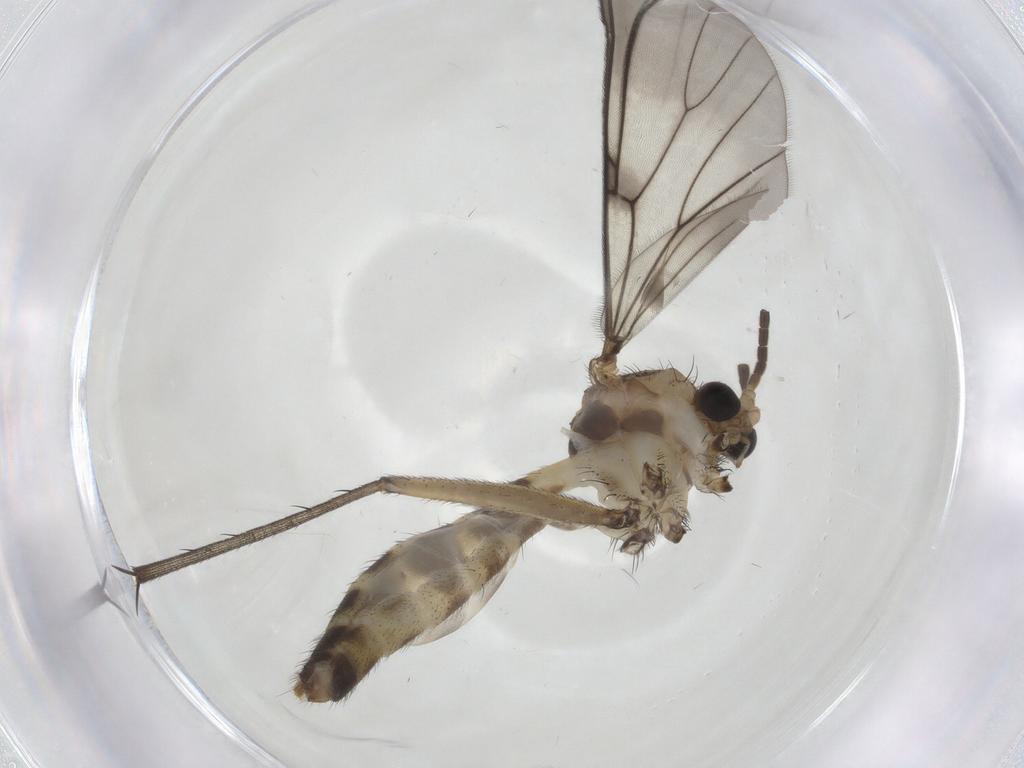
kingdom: Animalia
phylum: Arthropoda
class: Insecta
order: Diptera
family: Mycetophilidae
